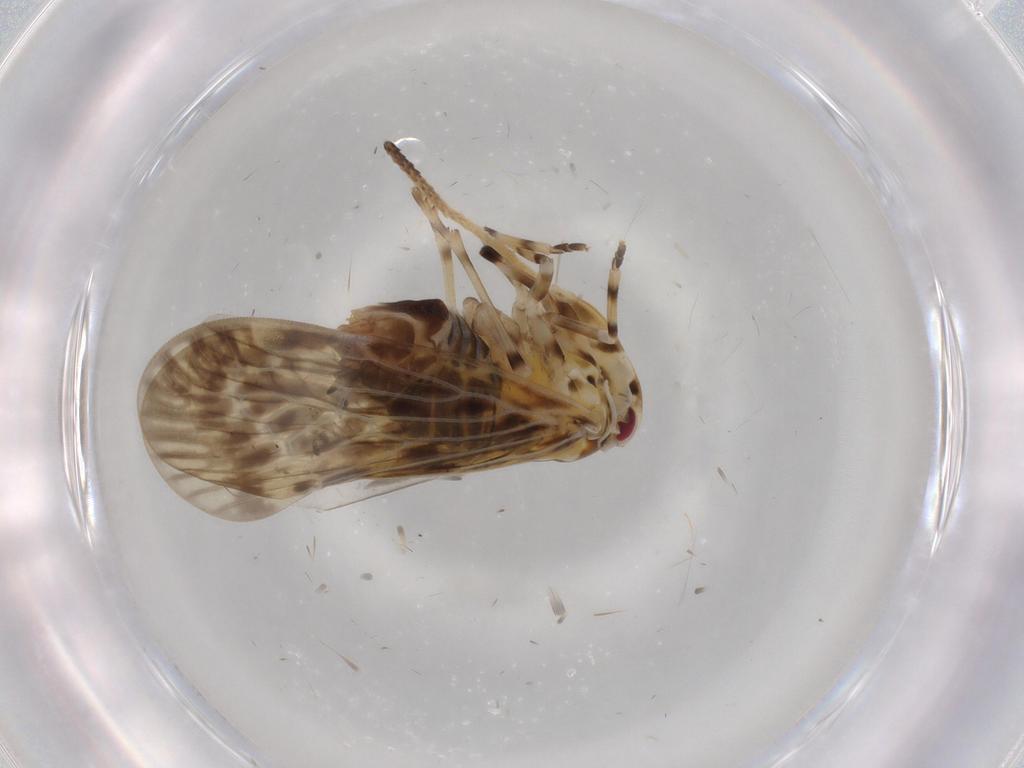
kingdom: Animalia
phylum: Arthropoda
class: Insecta
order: Hemiptera
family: Derbidae
